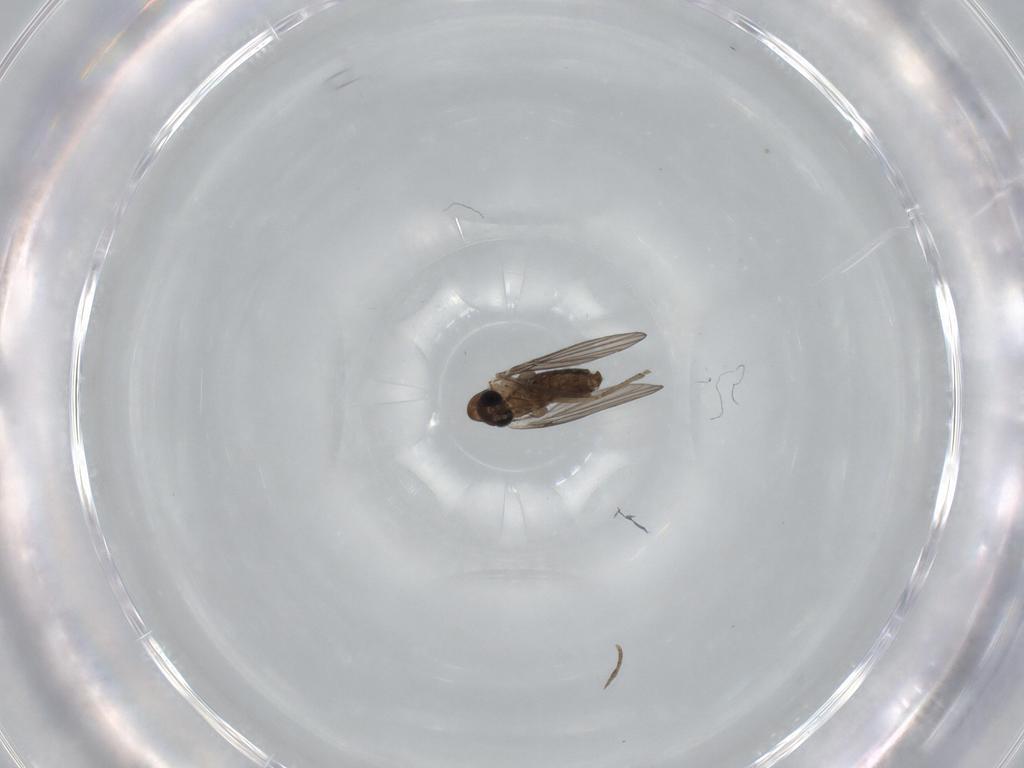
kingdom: Animalia
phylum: Arthropoda
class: Insecta
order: Diptera
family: Psychodidae
